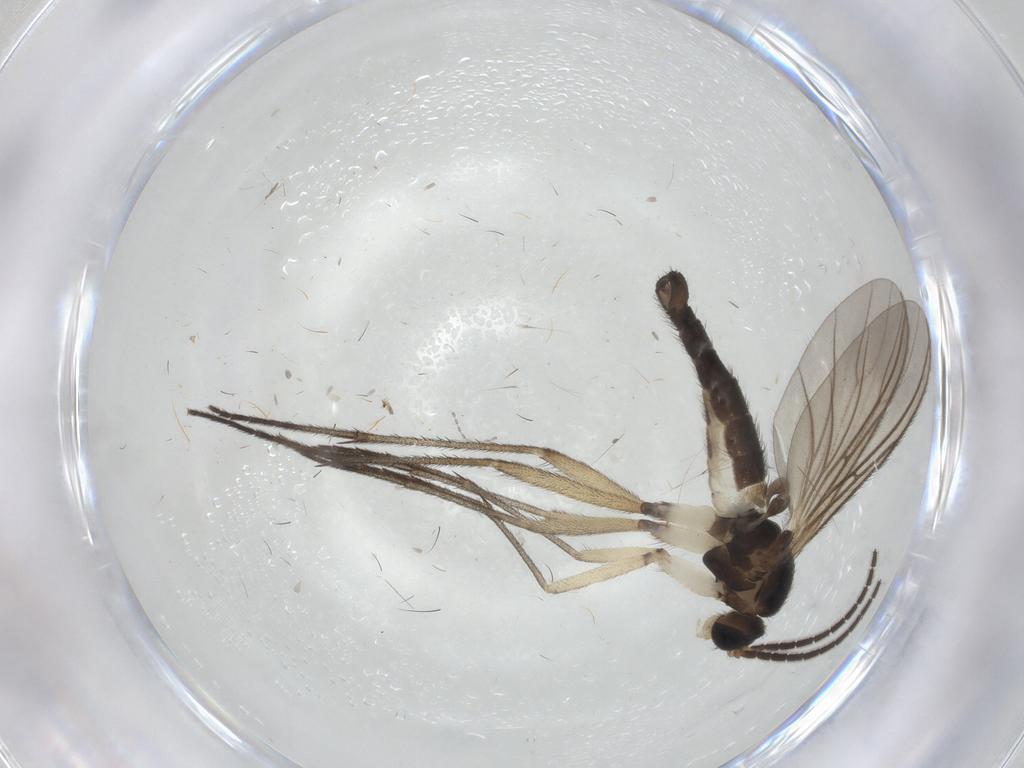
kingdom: Animalia
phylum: Arthropoda
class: Insecta
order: Diptera
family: Sciaridae
